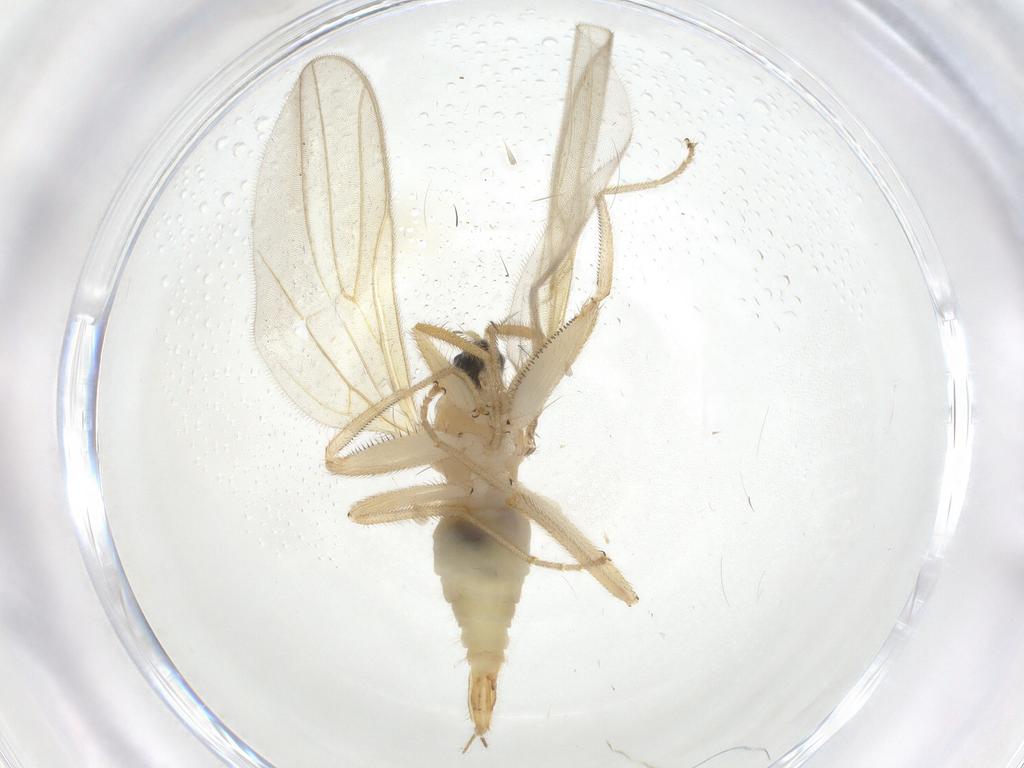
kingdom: Animalia
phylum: Arthropoda
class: Insecta
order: Diptera
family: Hybotidae
